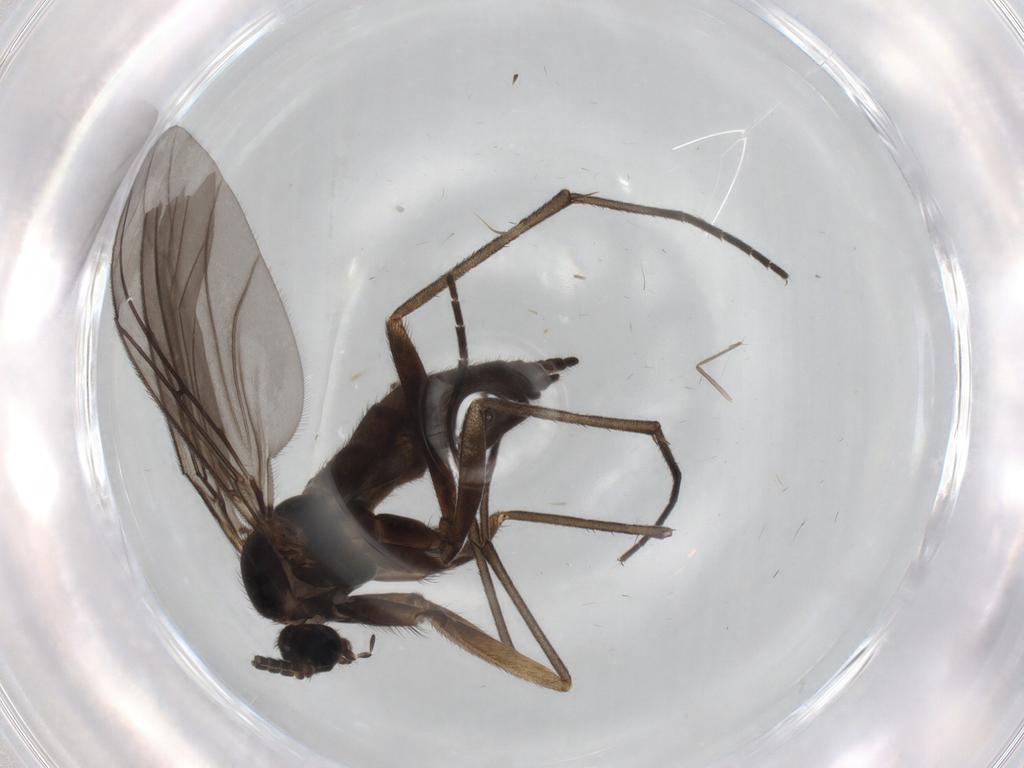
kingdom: Animalia
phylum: Arthropoda
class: Insecta
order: Diptera
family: Sciaridae
